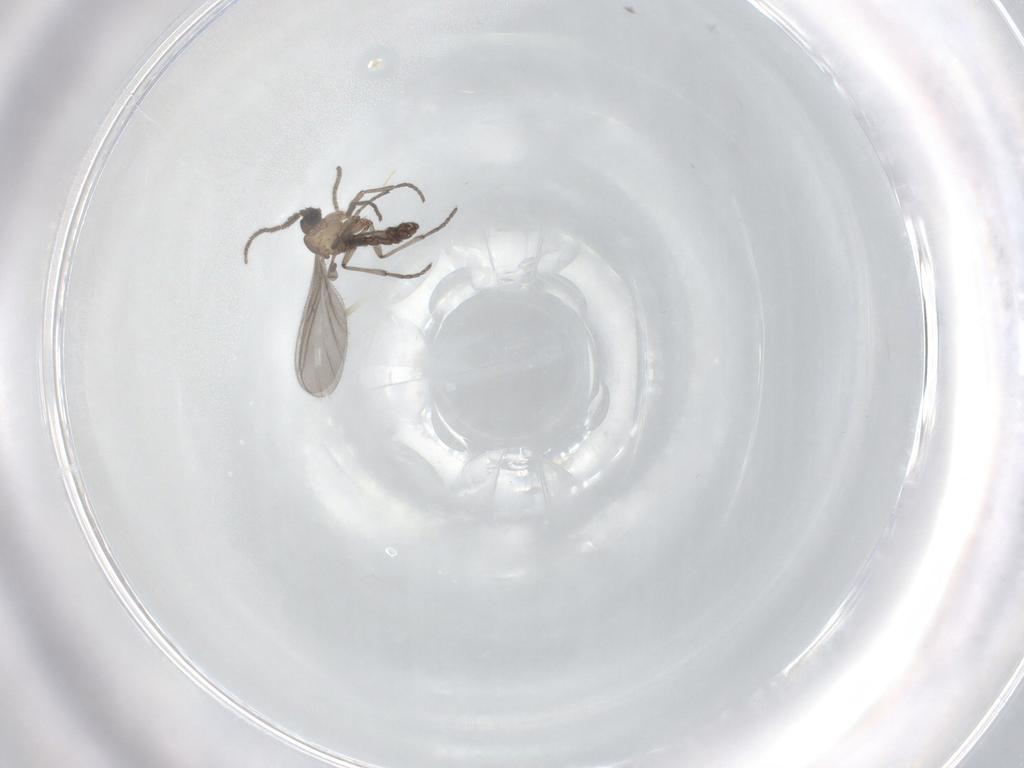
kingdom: Animalia
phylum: Arthropoda
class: Insecta
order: Diptera
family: Sciaridae
